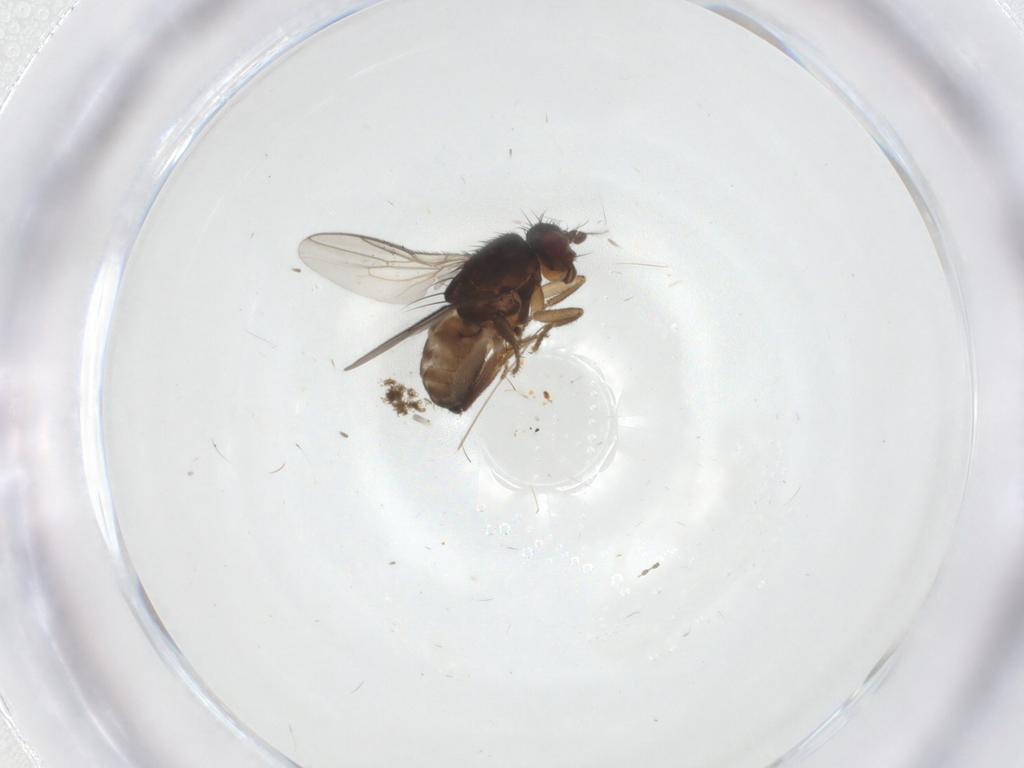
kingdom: Animalia
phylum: Arthropoda
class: Insecta
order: Diptera
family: Sphaeroceridae
